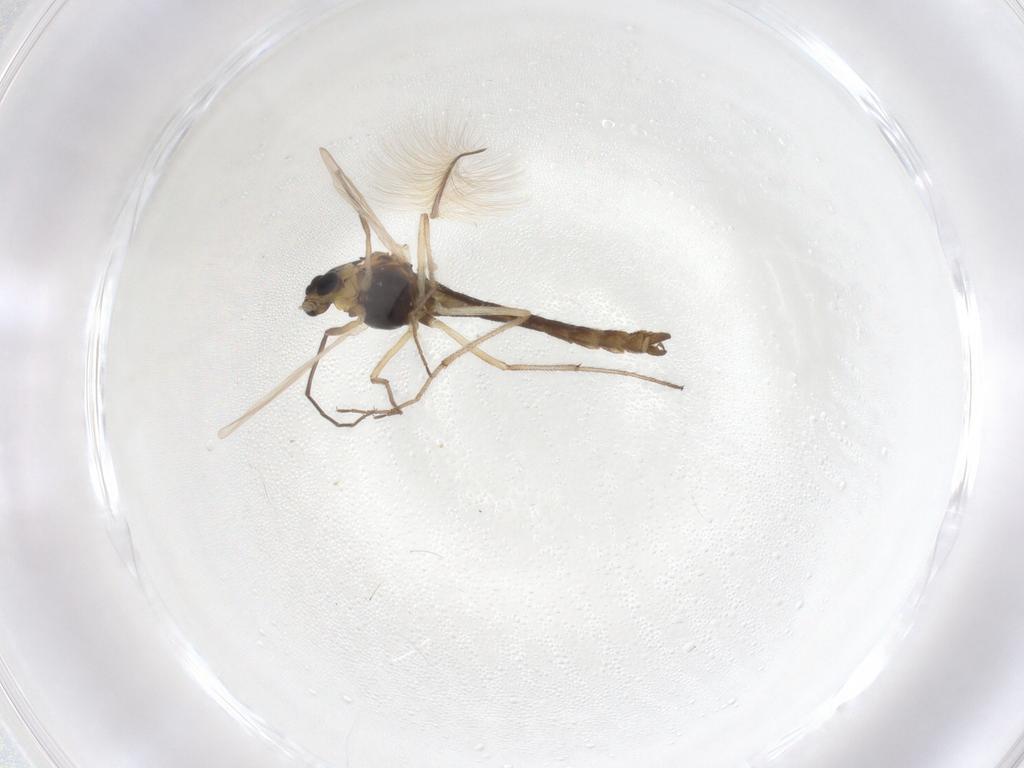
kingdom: Animalia
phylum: Arthropoda
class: Insecta
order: Diptera
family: Chironomidae
